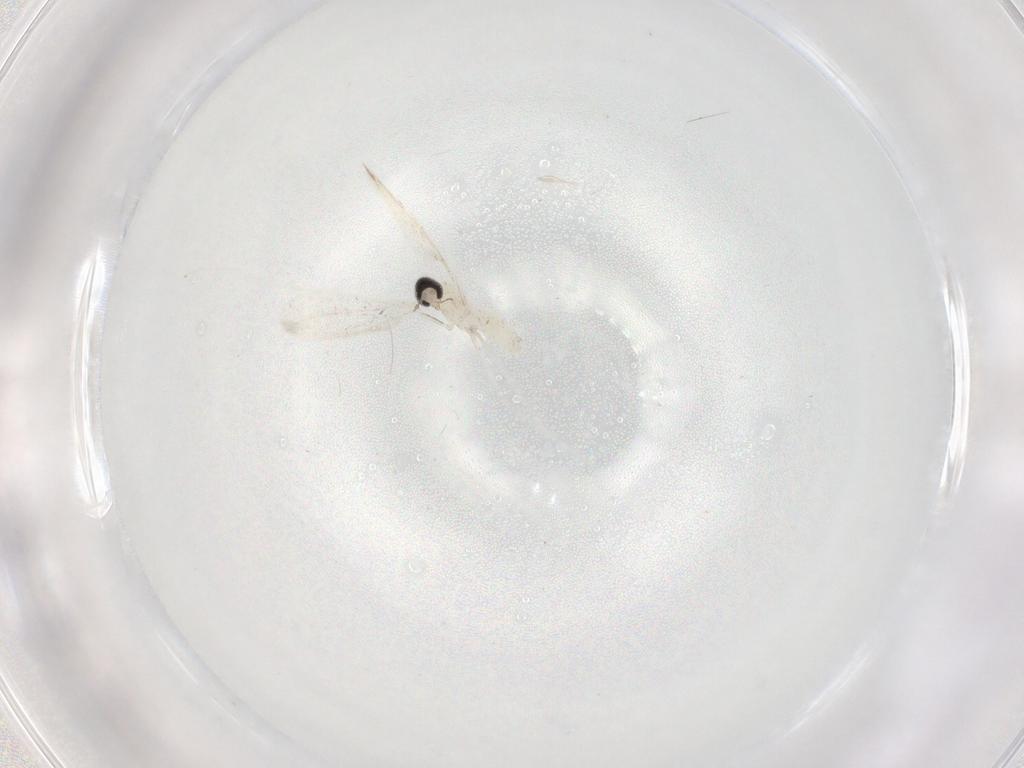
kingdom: Animalia
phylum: Arthropoda
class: Insecta
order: Diptera
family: Cecidomyiidae
